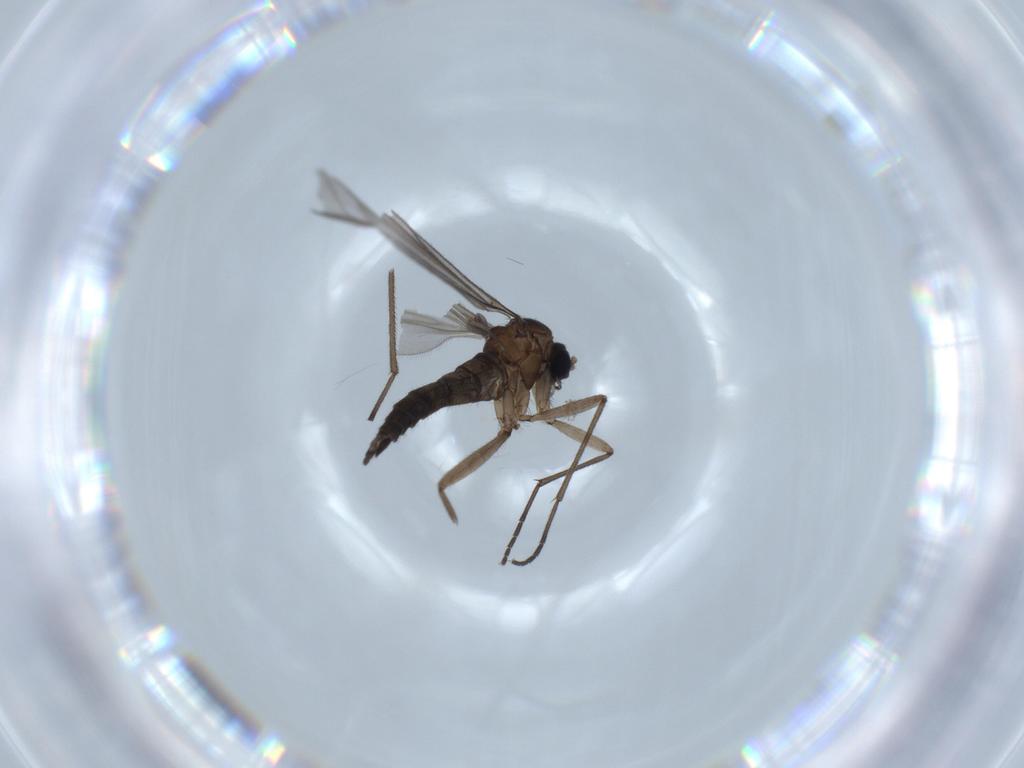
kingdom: Animalia
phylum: Arthropoda
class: Insecta
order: Diptera
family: Sciaridae
